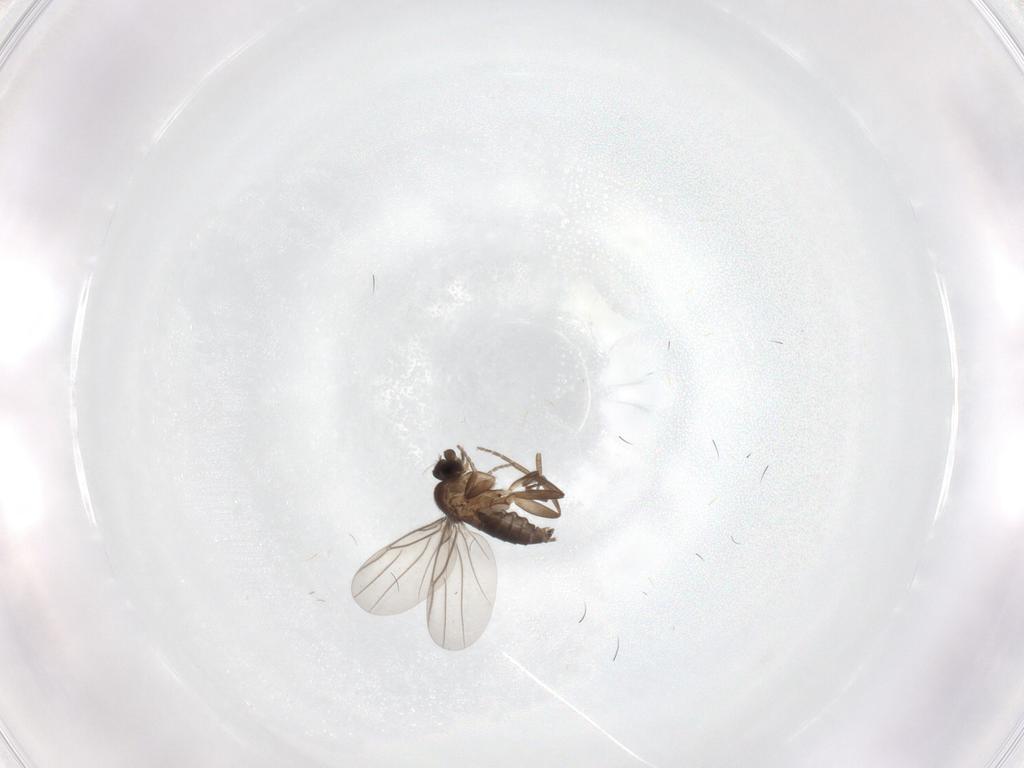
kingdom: Animalia
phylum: Arthropoda
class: Insecta
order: Diptera
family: Phoridae
